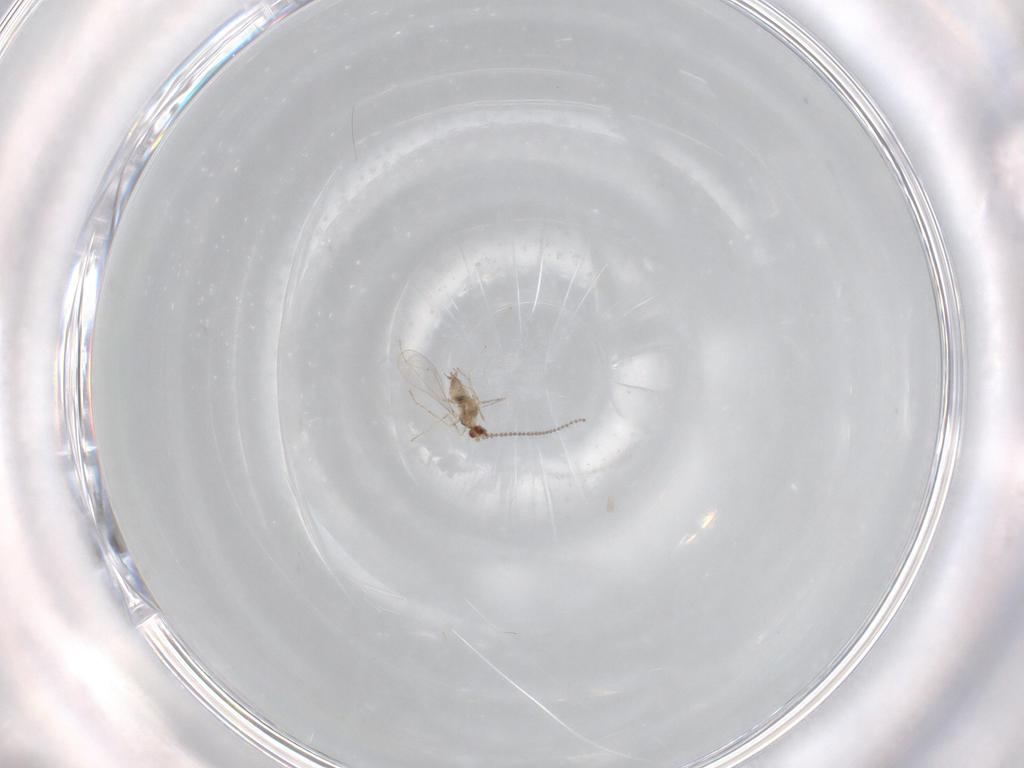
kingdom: Animalia
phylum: Arthropoda
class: Insecta
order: Diptera
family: Cecidomyiidae
